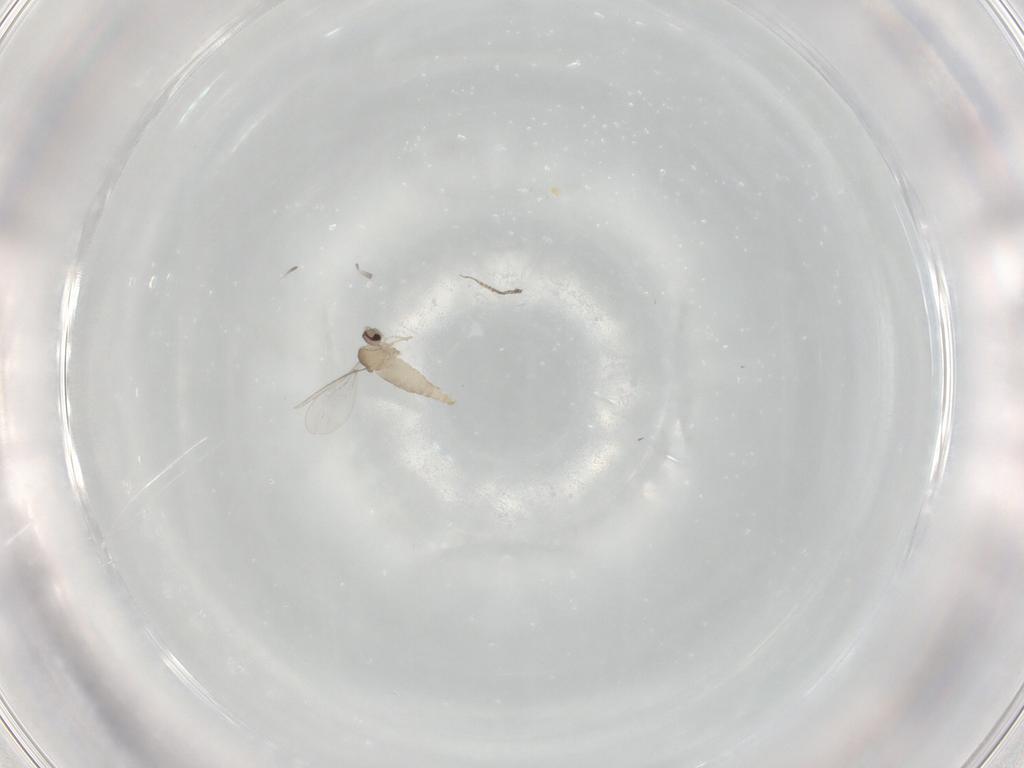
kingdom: Animalia
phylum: Arthropoda
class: Insecta
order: Diptera
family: Cecidomyiidae
